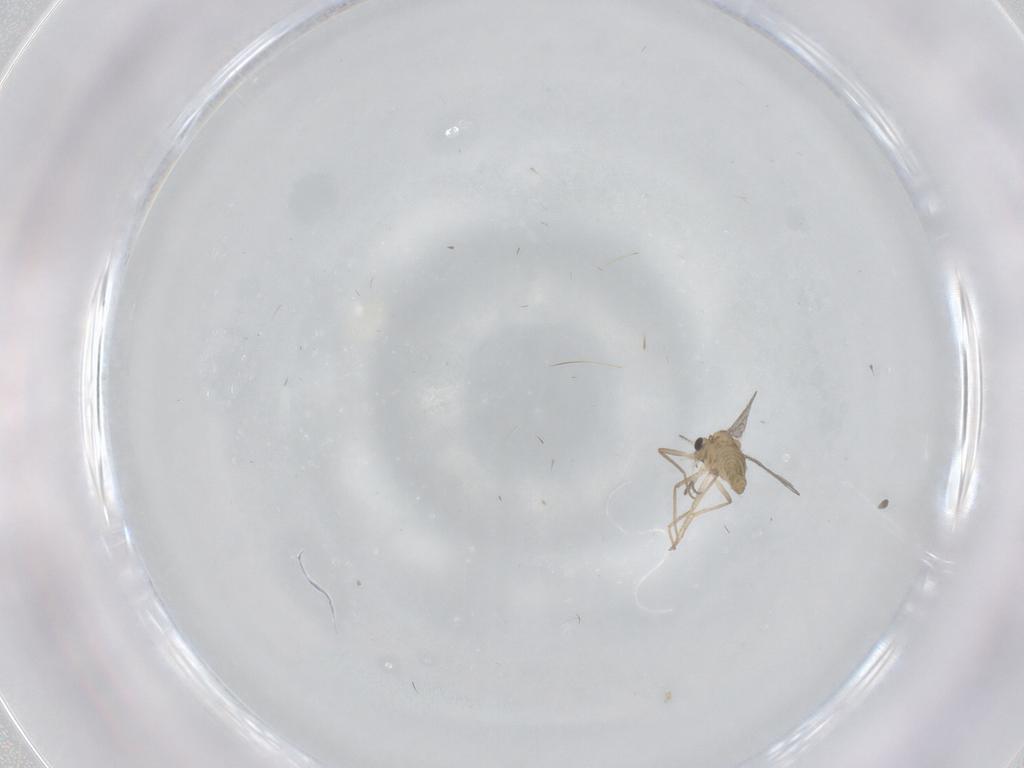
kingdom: Animalia
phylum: Arthropoda
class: Insecta
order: Diptera
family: Chironomidae
